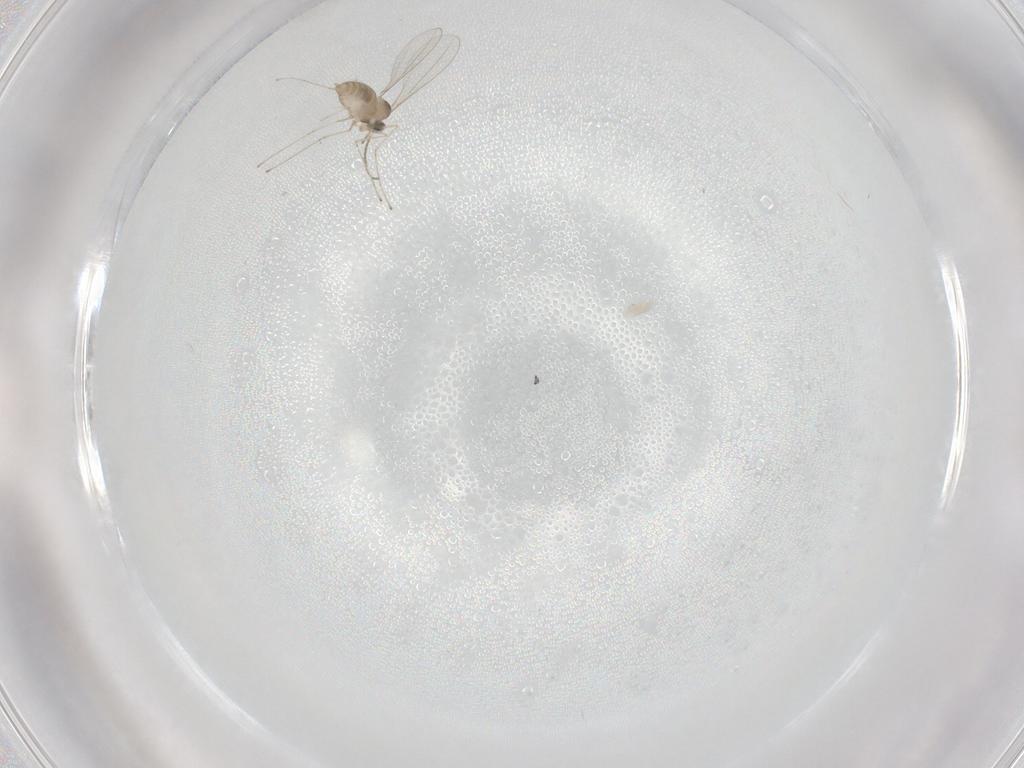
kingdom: Animalia
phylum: Arthropoda
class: Insecta
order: Diptera
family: Cecidomyiidae
